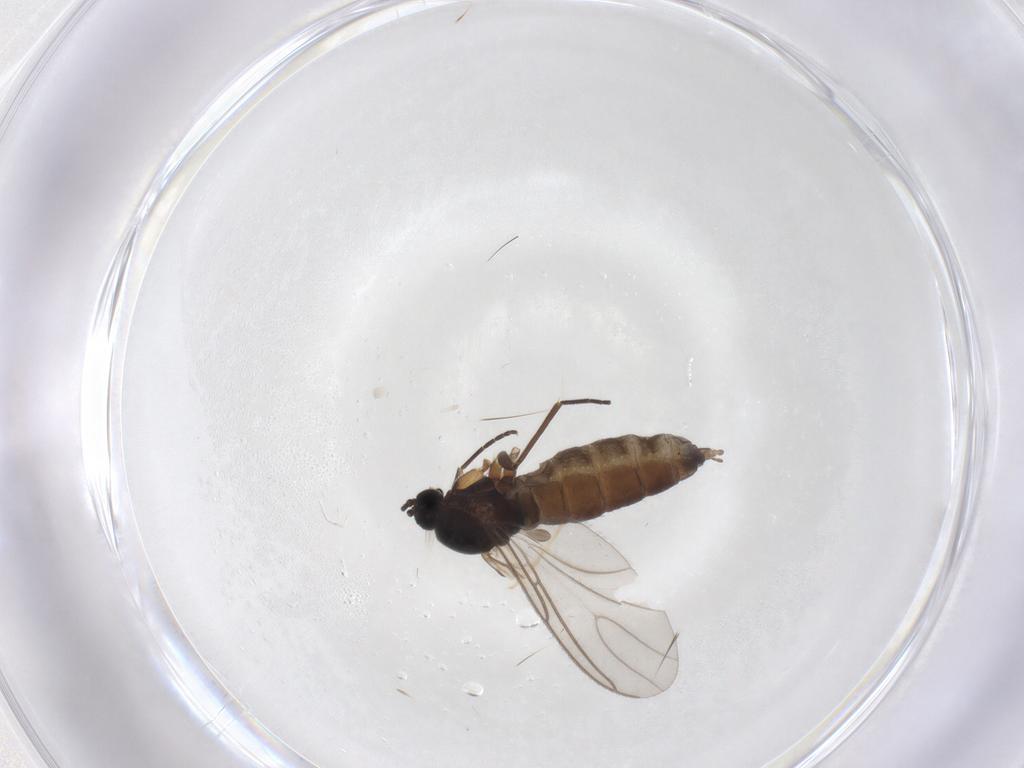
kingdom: Animalia
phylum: Arthropoda
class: Insecta
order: Diptera
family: Sciaridae
